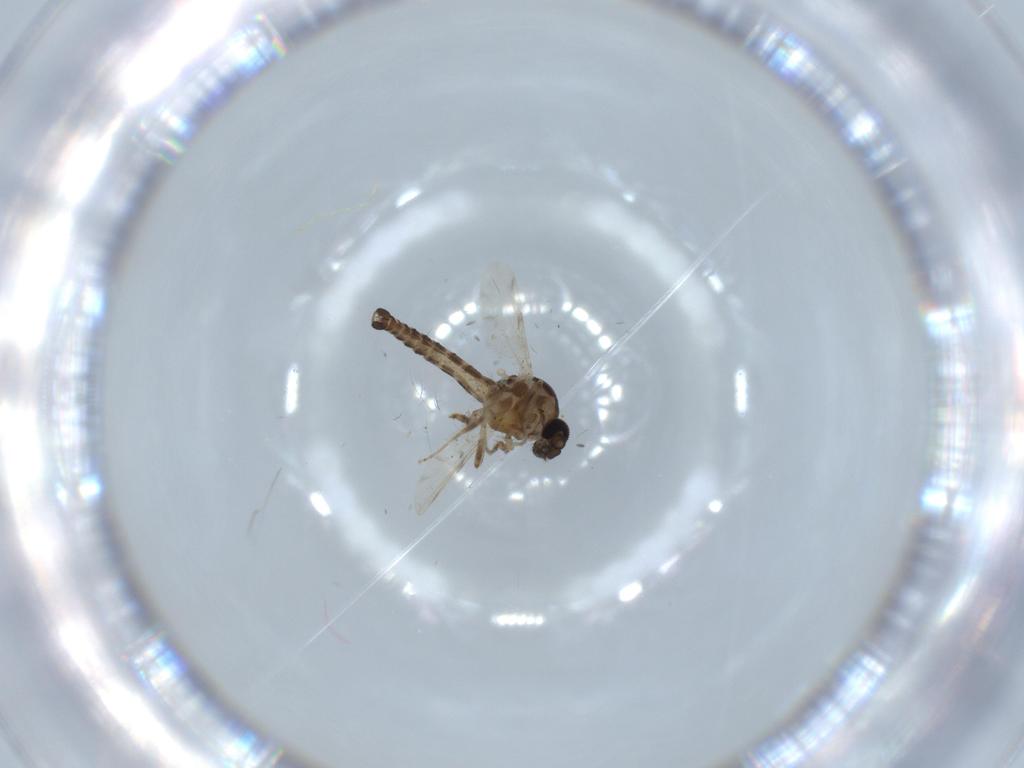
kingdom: Animalia
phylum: Arthropoda
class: Insecta
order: Diptera
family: Ceratopogonidae
